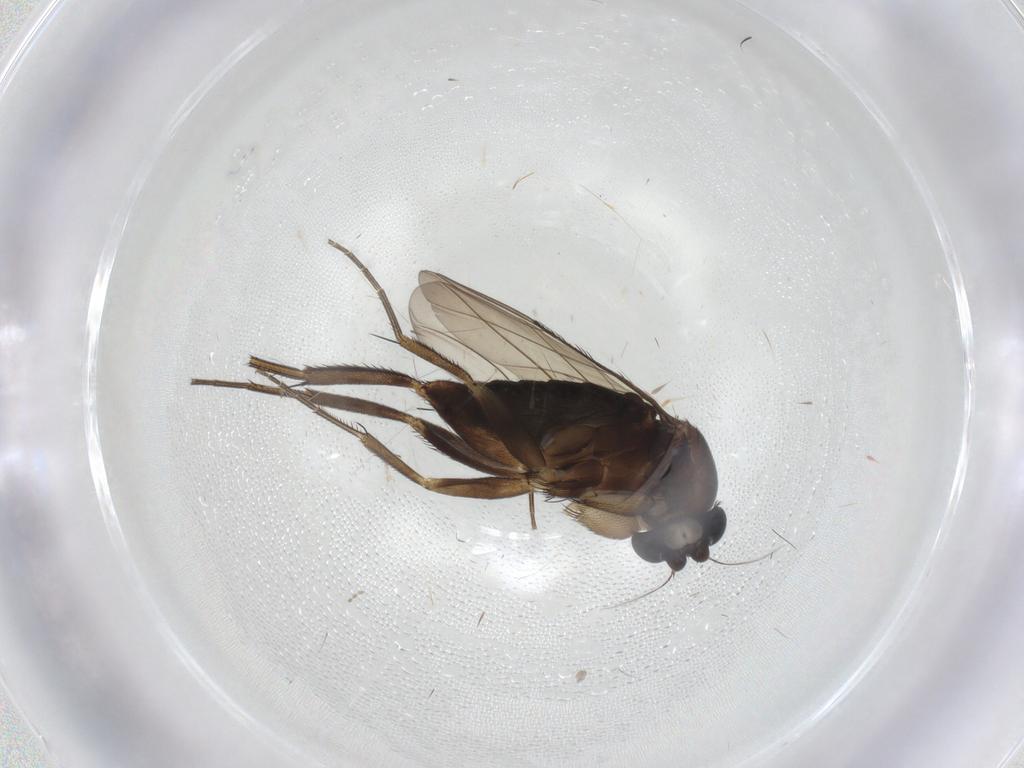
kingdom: Animalia
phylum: Arthropoda
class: Insecta
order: Diptera
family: Phoridae
